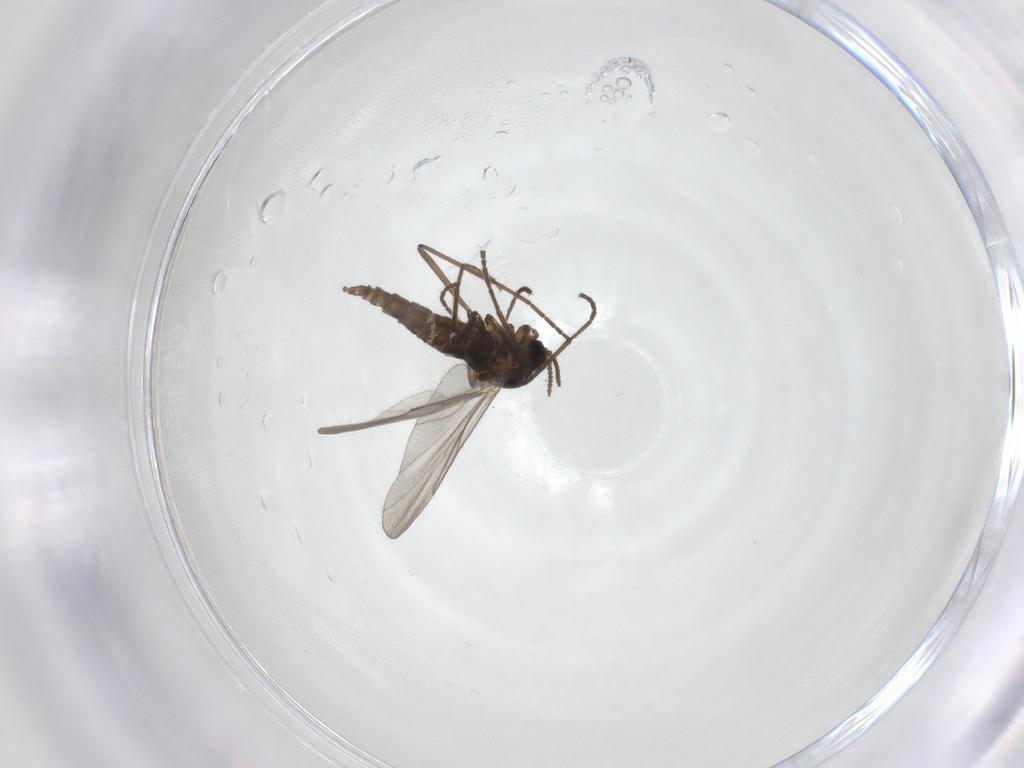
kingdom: Animalia
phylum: Arthropoda
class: Insecta
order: Diptera
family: Cecidomyiidae
